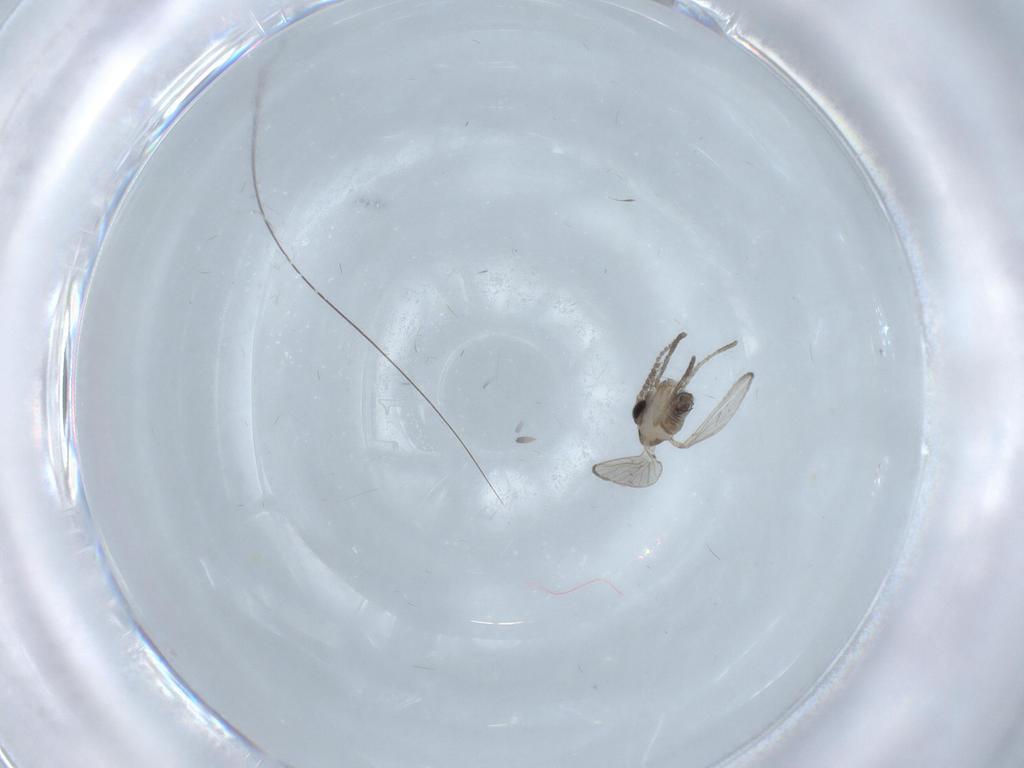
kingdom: Animalia
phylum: Arthropoda
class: Insecta
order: Diptera
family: Psychodidae
